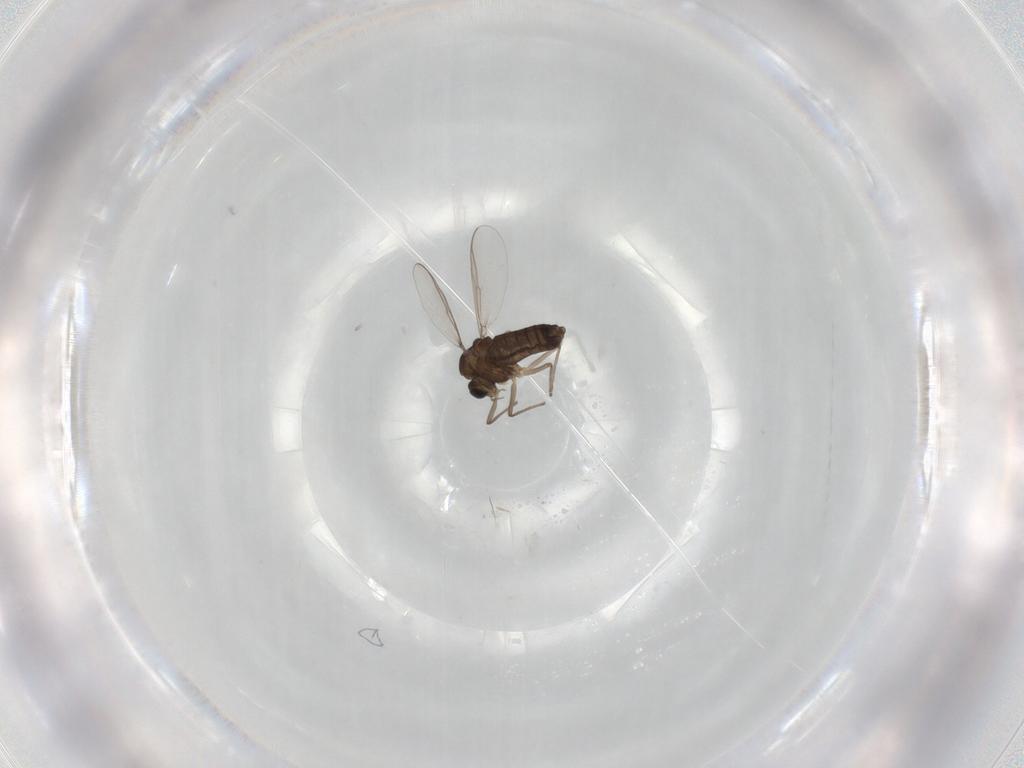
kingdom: Animalia
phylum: Arthropoda
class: Insecta
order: Diptera
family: Chironomidae
